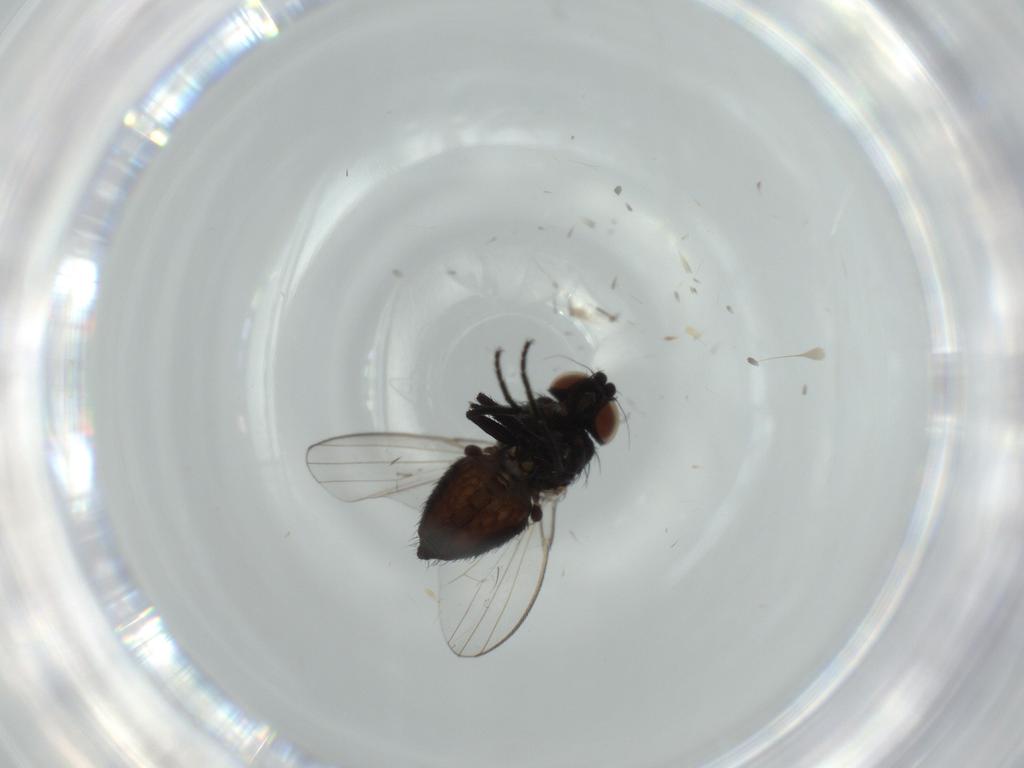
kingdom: Animalia
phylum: Arthropoda
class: Insecta
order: Diptera
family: Milichiidae
